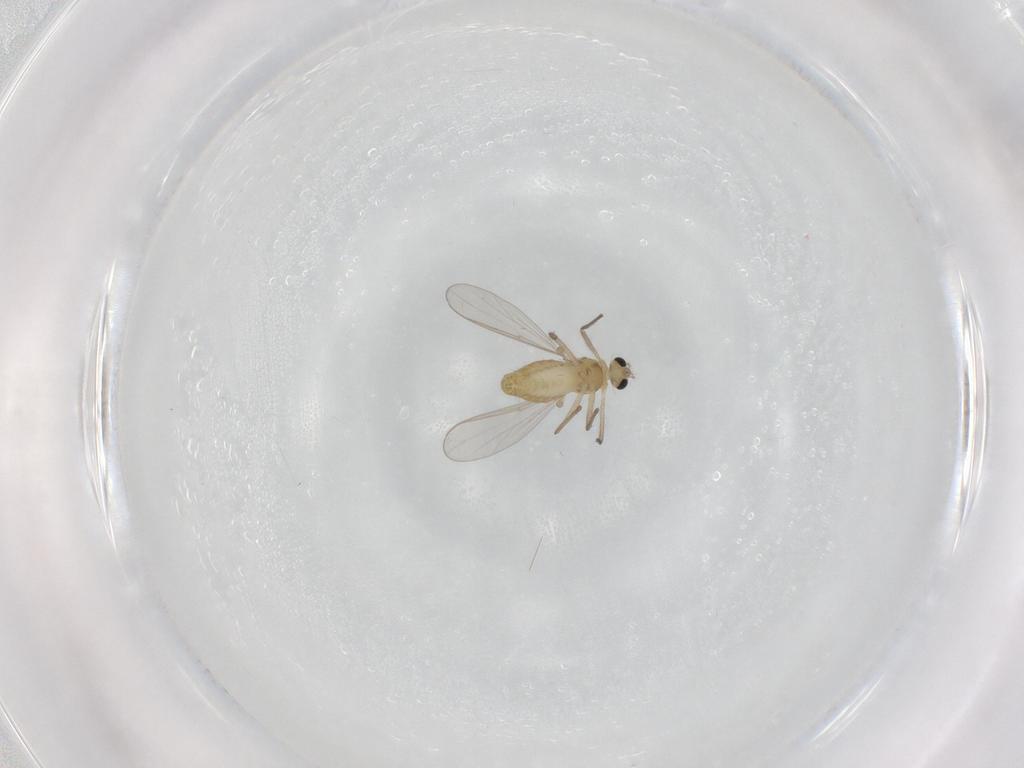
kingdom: Animalia
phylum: Arthropoda
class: Insecta
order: Diptera
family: Chironomidae
